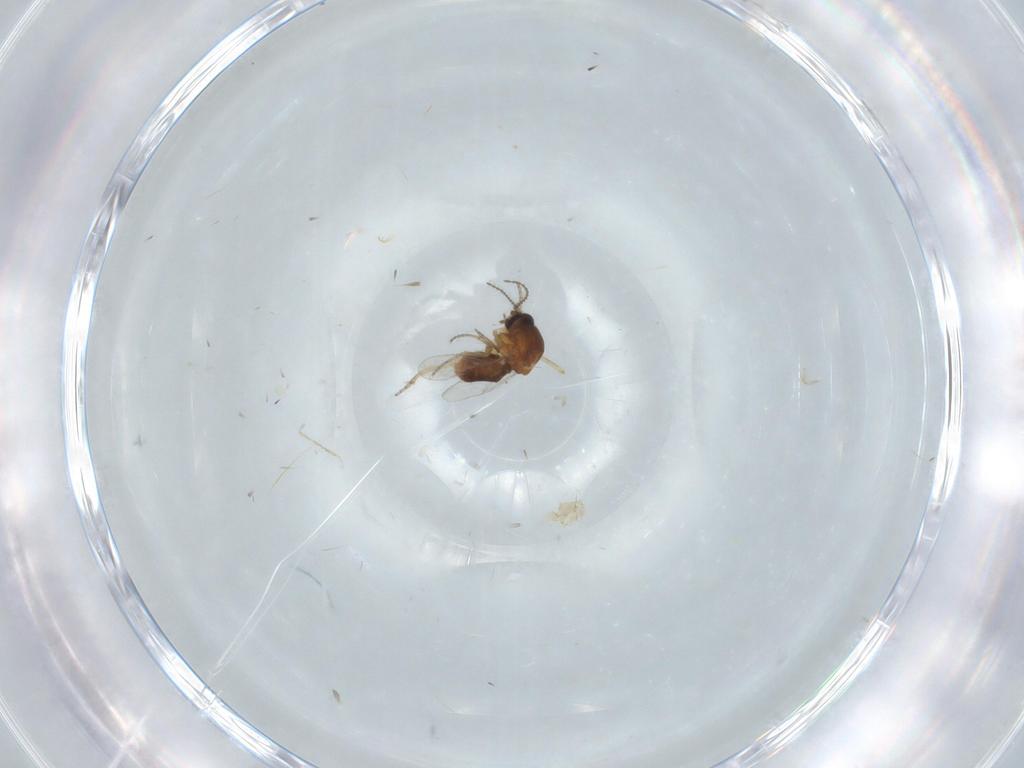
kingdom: Animalia
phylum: Arthropoda
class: Insecta
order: Diptera
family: Ceratopogonidae
